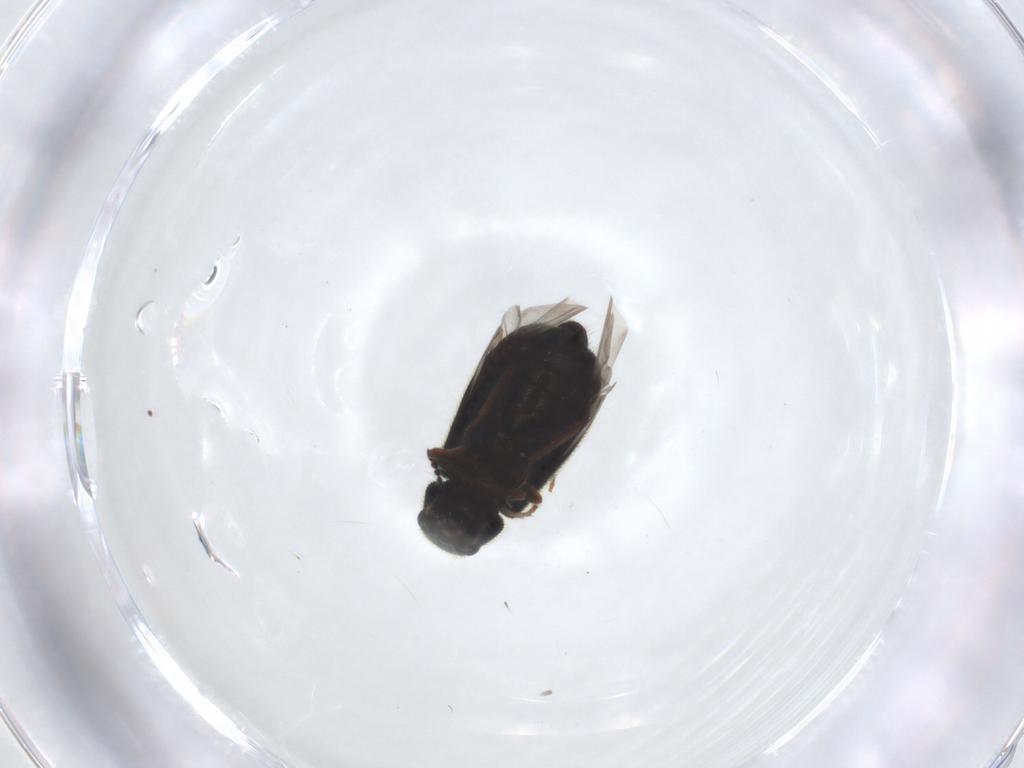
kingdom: Animalia
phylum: Arthropoda
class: Insecta
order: Coleoptera
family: Melyridae
